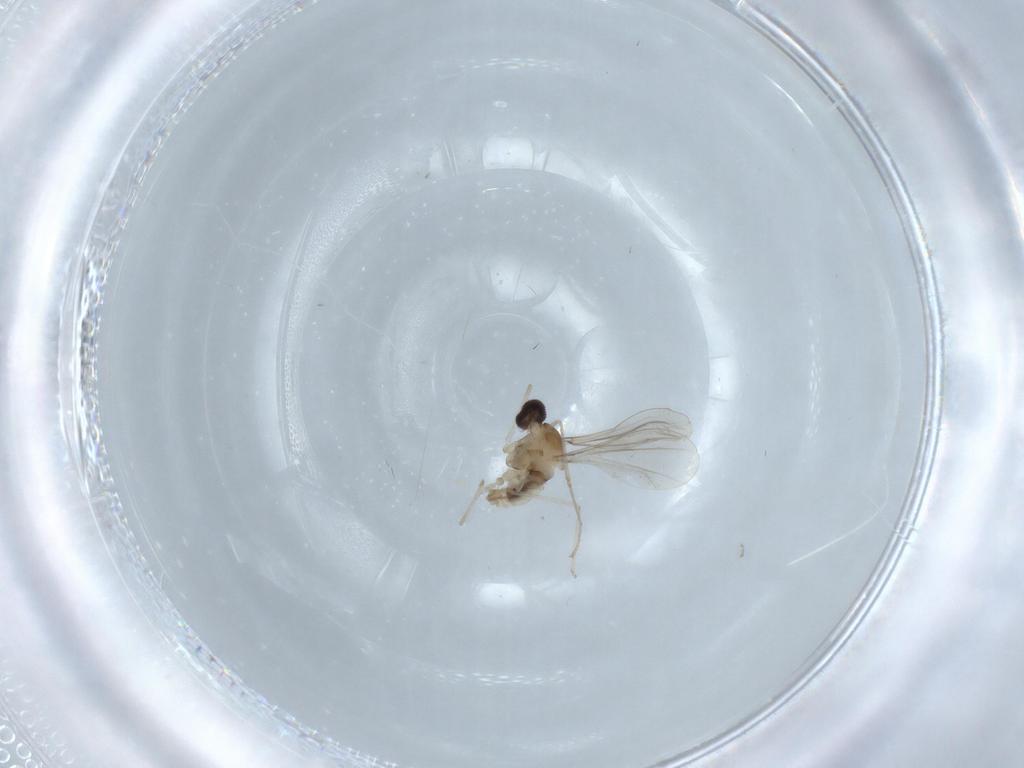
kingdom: Animalia
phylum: Arthropoda
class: Insecta
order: Diptera
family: Cecidomyiidae
